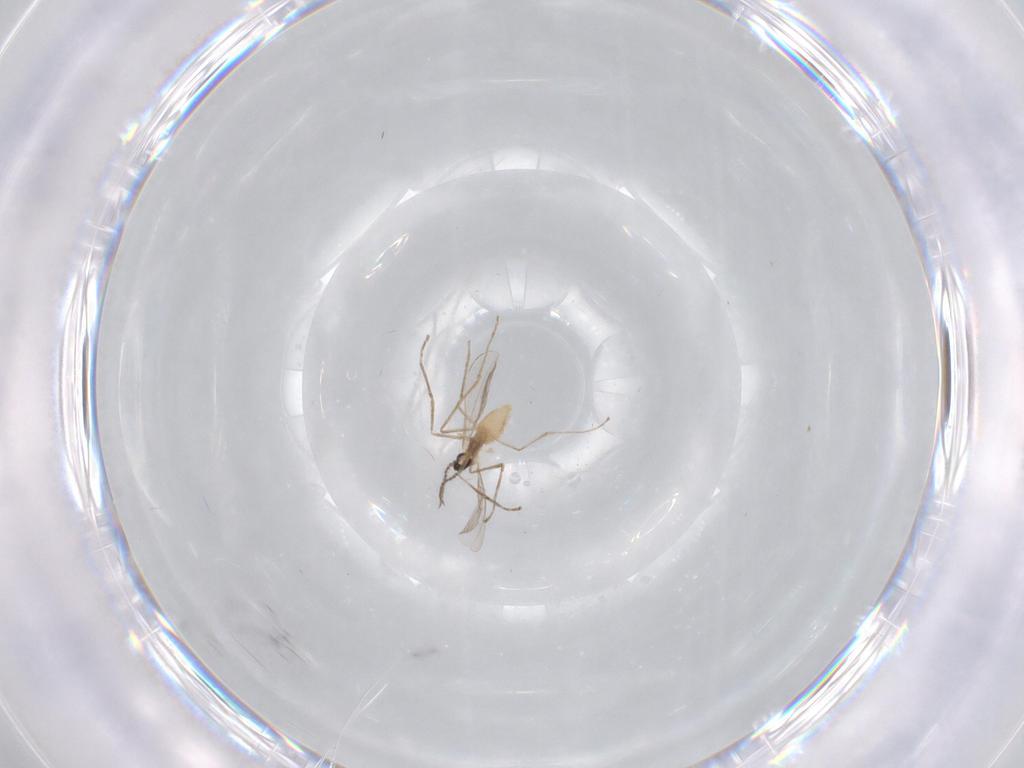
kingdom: Animalia
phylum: Arthropoda
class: Insecta
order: Diptera
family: Cecidomyiidae
